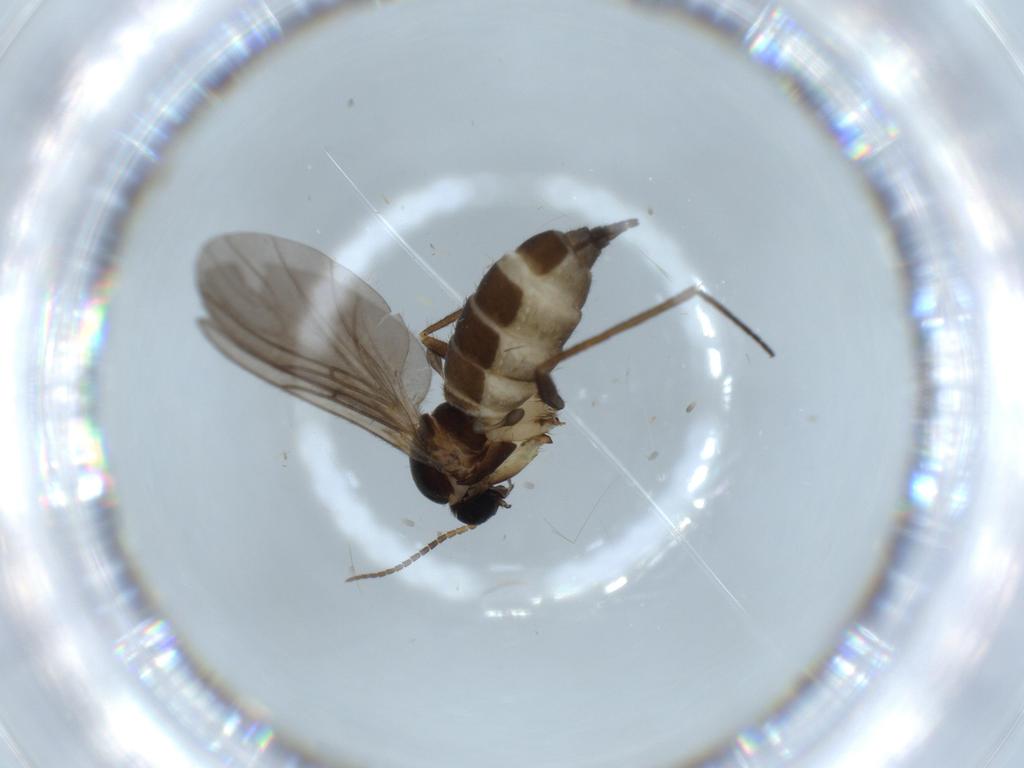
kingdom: Animalia
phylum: Arthropoda
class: Insecta
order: Diptera
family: Sciaridae
